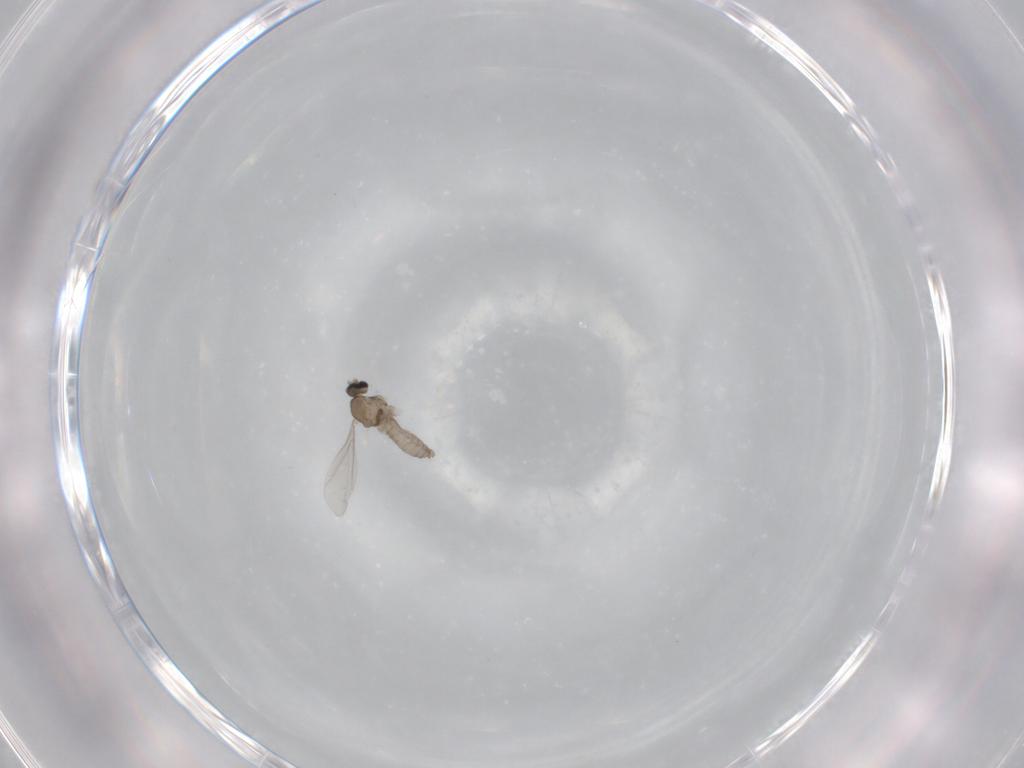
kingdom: Animalia
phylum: Arthropoda
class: Insecta
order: Diptera
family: Cecidomyiidae
